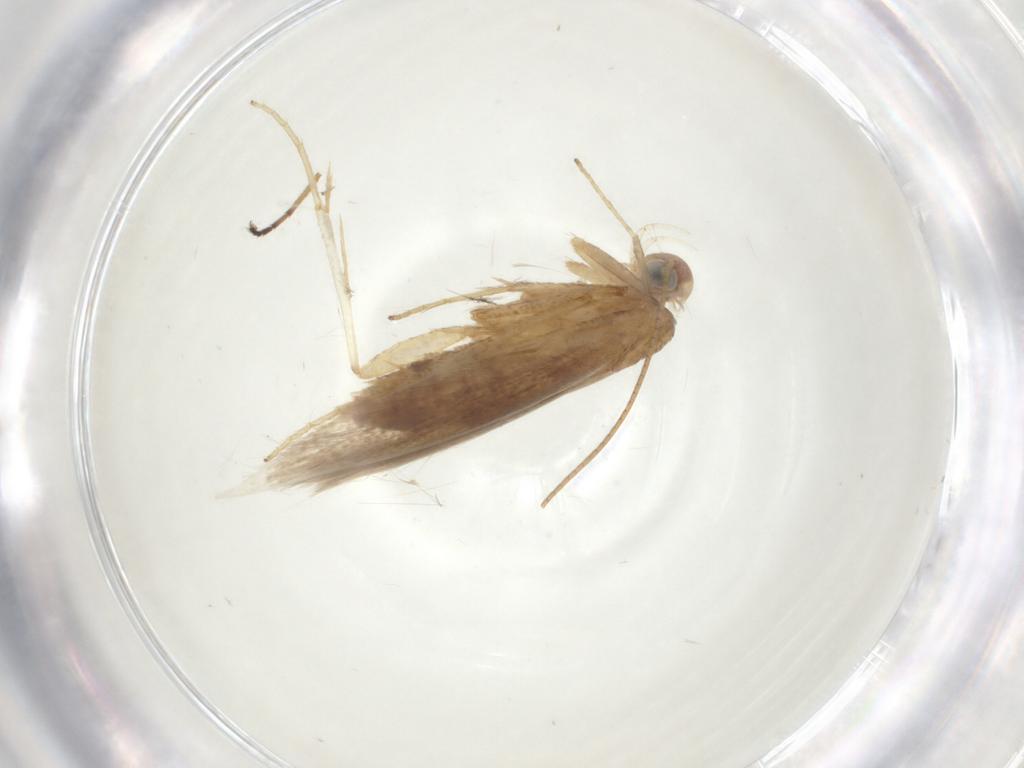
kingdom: Animalia
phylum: Arthropoda
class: Insecta
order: Lepidoptera
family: Batrachedridae
